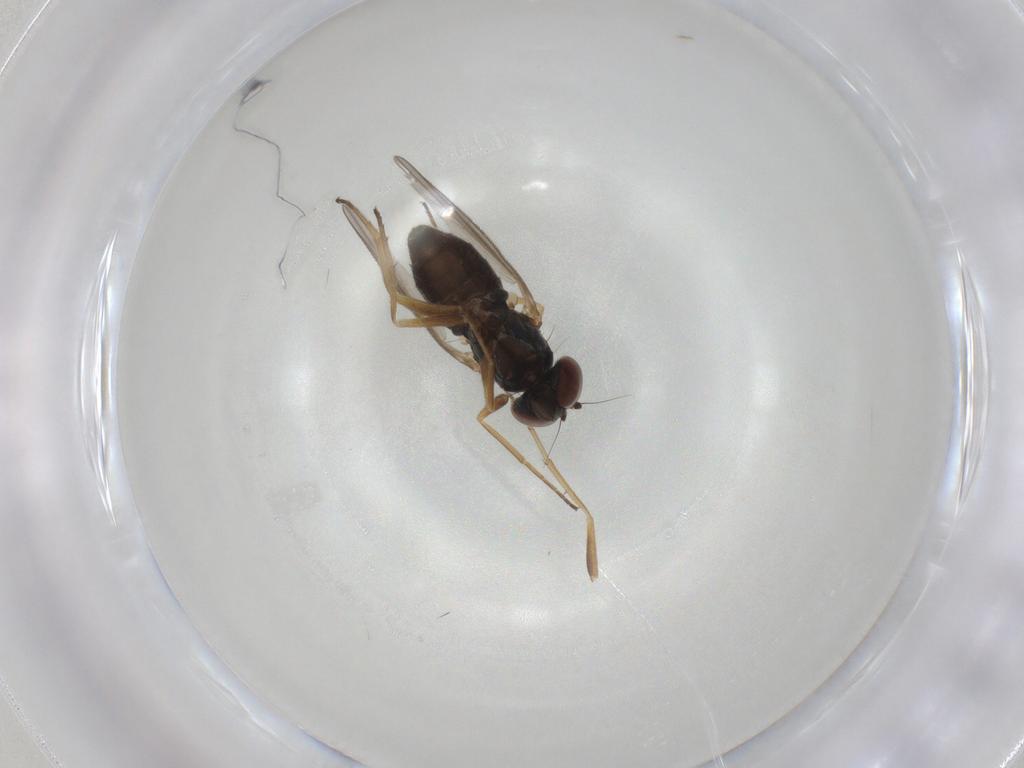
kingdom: Animalia
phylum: Arthropoda
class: Insecta
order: Diptera
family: Dolichopodidae
